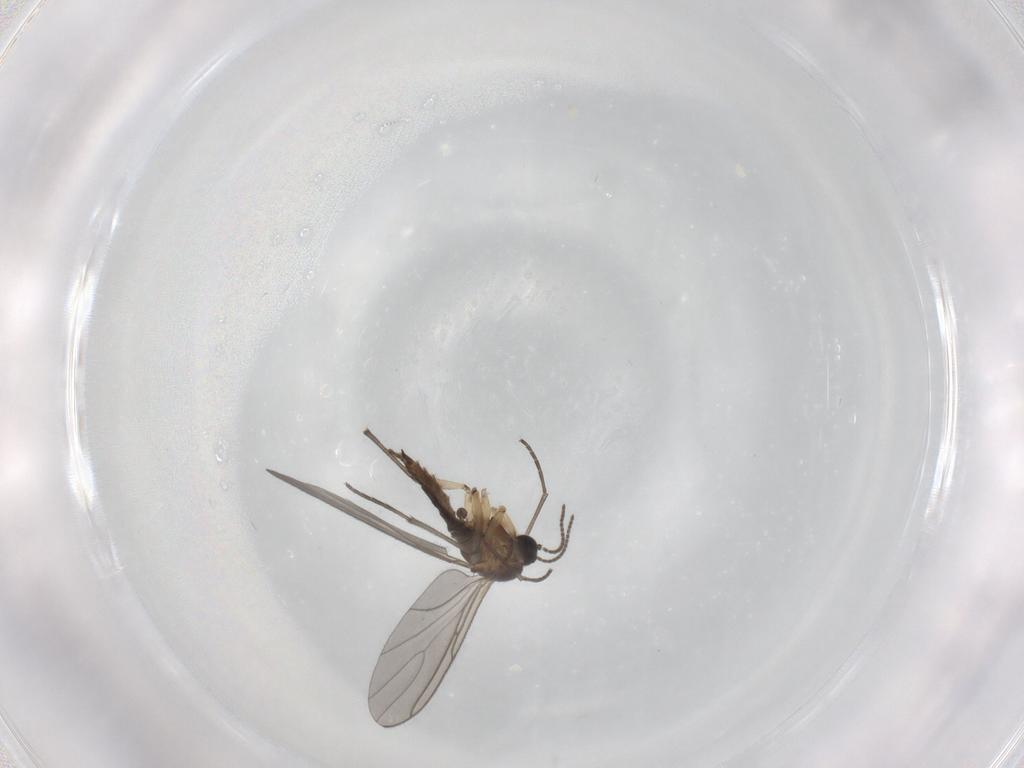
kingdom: Animalia
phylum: Arthropoda
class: Insecta
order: Diptera
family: Sciaridae
